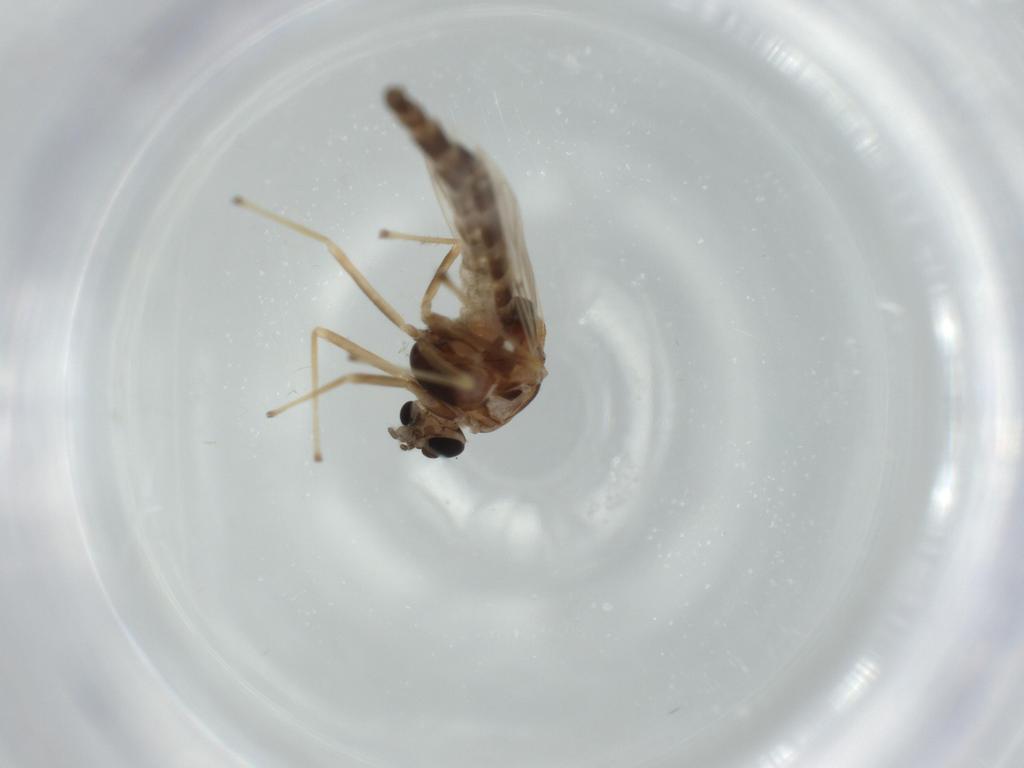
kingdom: Animalia
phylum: Arthropoda
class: Insecta
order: Diptera
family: Chironomidae
